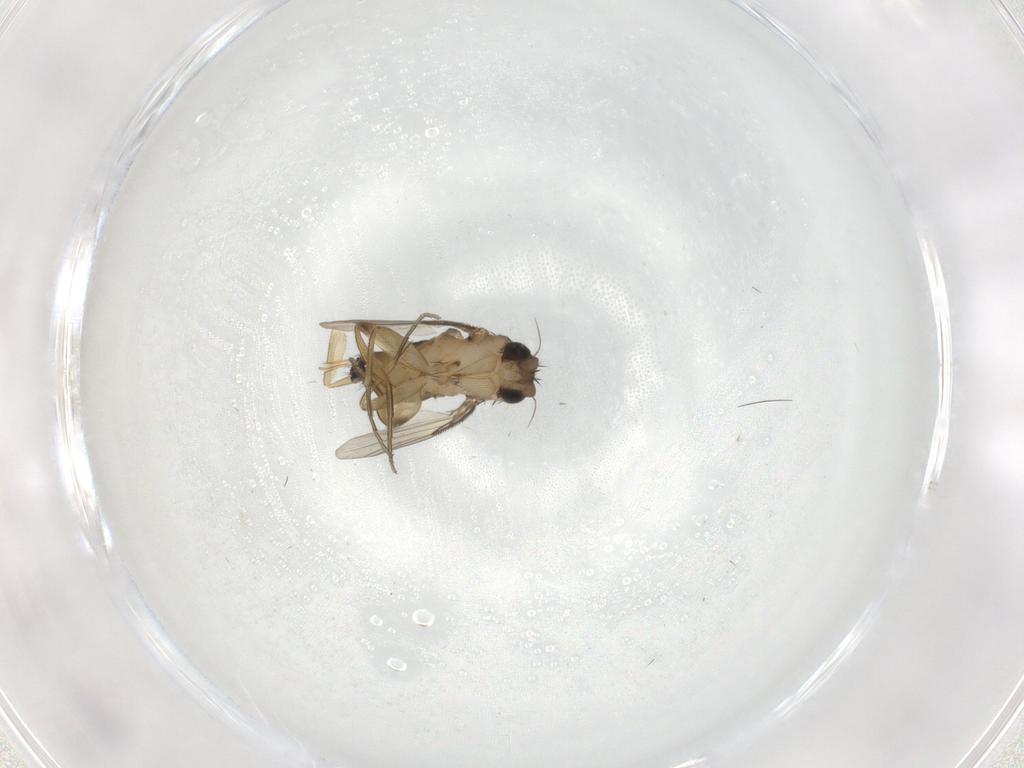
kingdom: Animalia
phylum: Arthropoda
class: Insecta
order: Diptera
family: Phoridae
